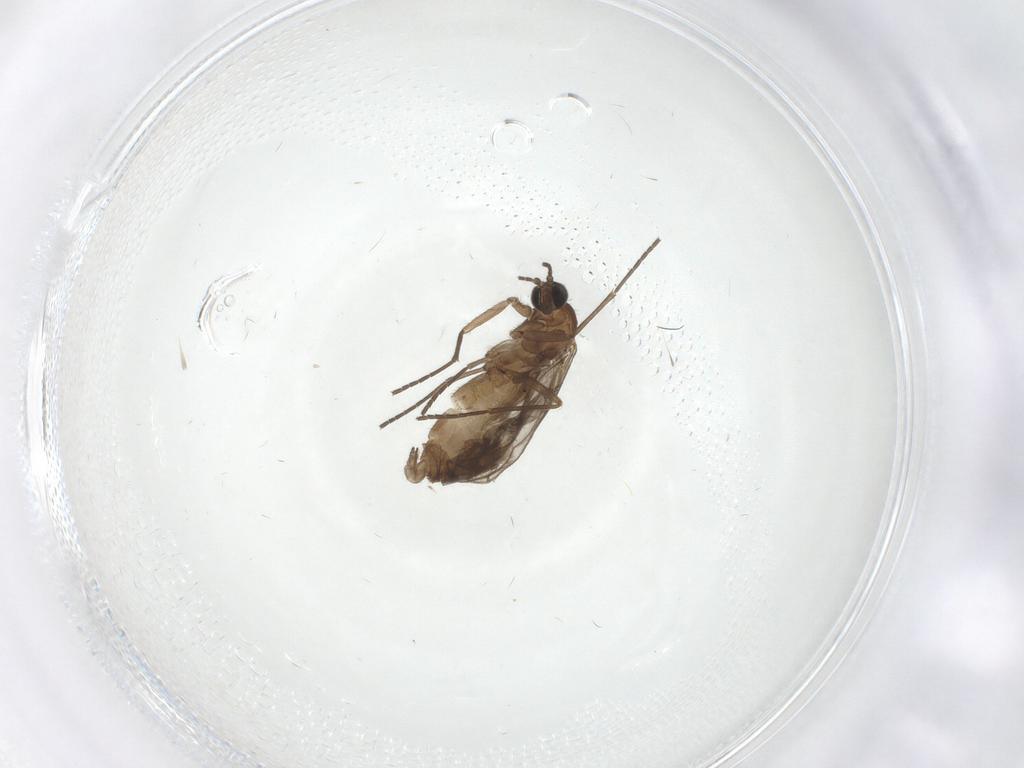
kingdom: Animalia
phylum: Arthropoda
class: Insecta
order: Diptera
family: Sciaridae
